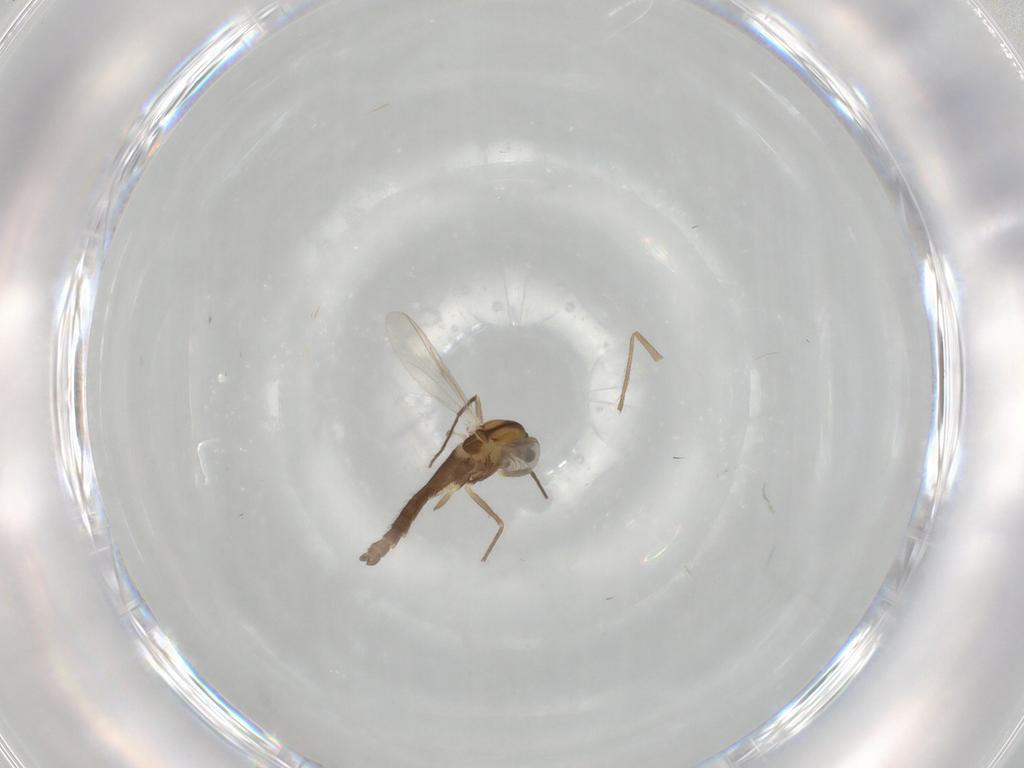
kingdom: Animalia
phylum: Arthropoda
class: Insecta
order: Diptera
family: Chironomidae
